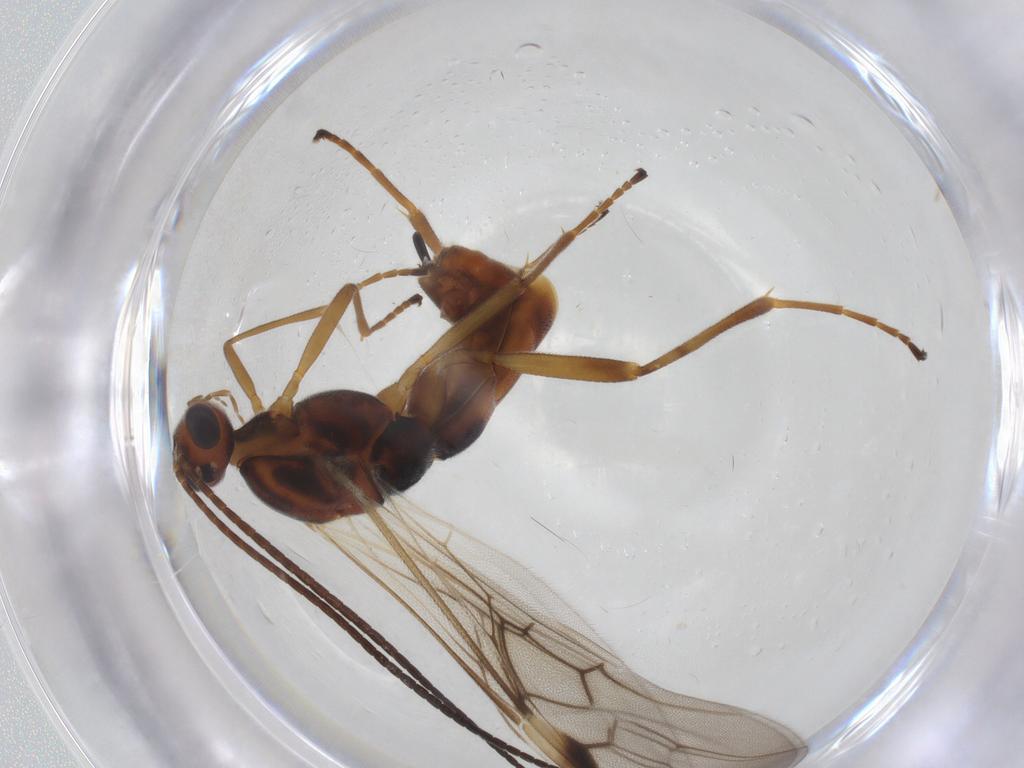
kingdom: Animalia
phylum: Arthropoda
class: Insecta
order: Hymenoptera
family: Braconidae
